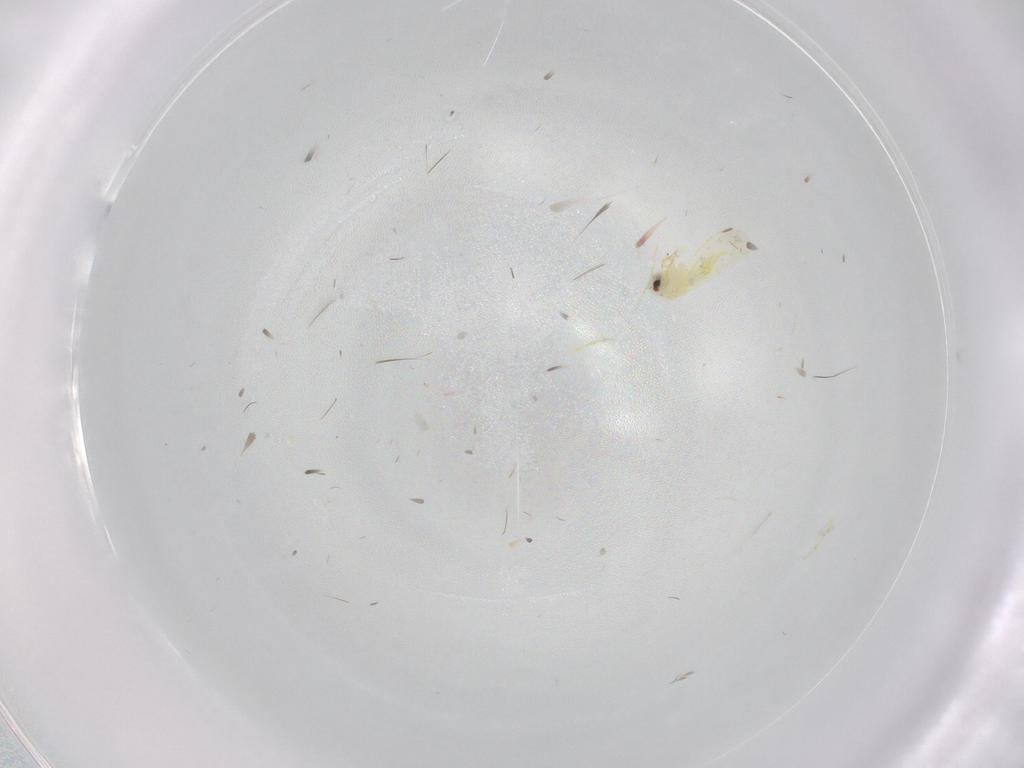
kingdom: Animalia
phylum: Arthropoda
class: Insecta
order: Hemiptera
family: Aleyrodidae
